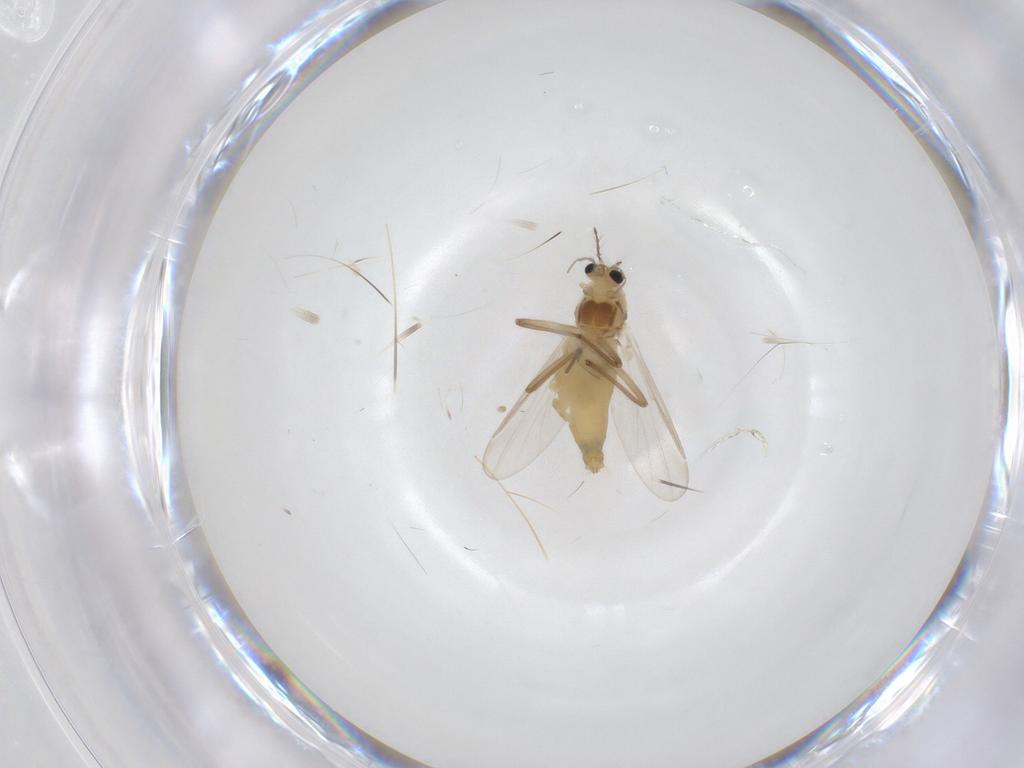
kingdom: Animalia
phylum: Arthropoda
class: Insecta
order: Diptera
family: Chironomidae
